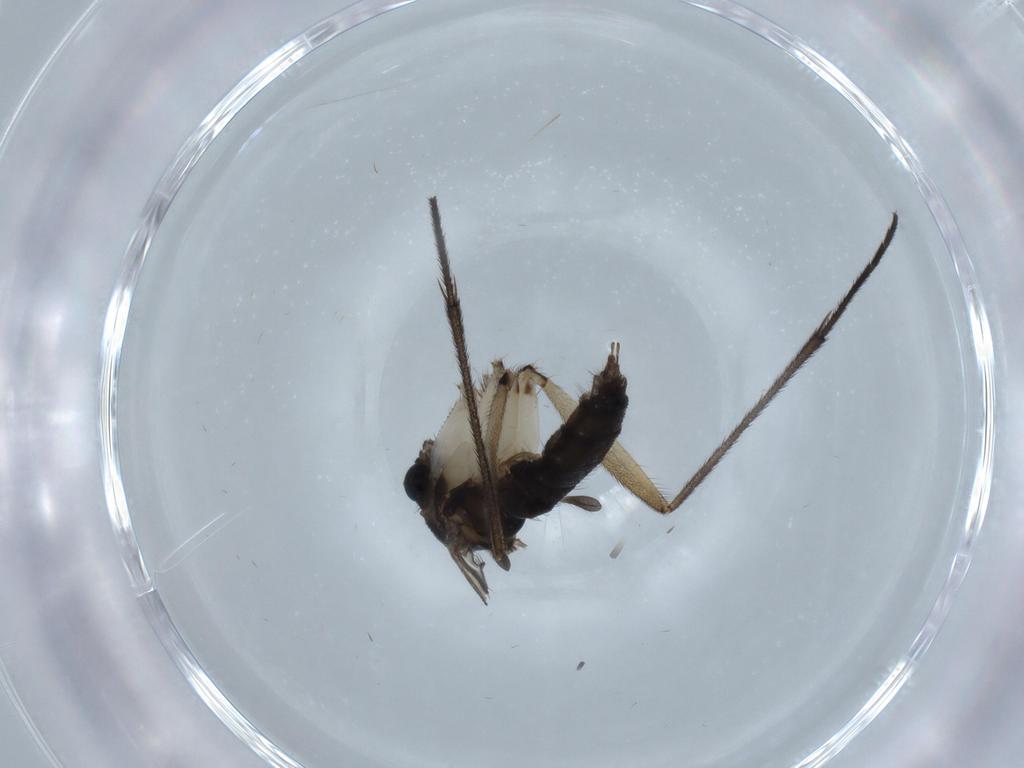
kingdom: Animalia
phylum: Arthropoda
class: Insecta
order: Diptera
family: Sciaridae
